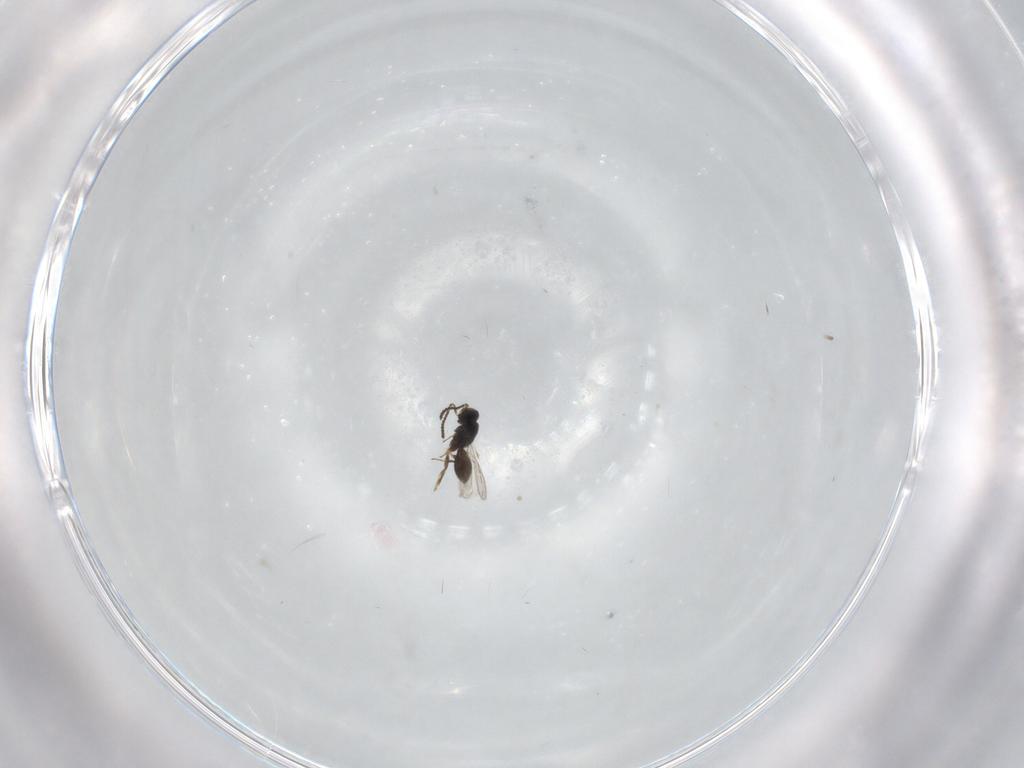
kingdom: Animalia
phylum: Arthropoda
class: Insecta
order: Hymenoptera
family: Scelionidae
